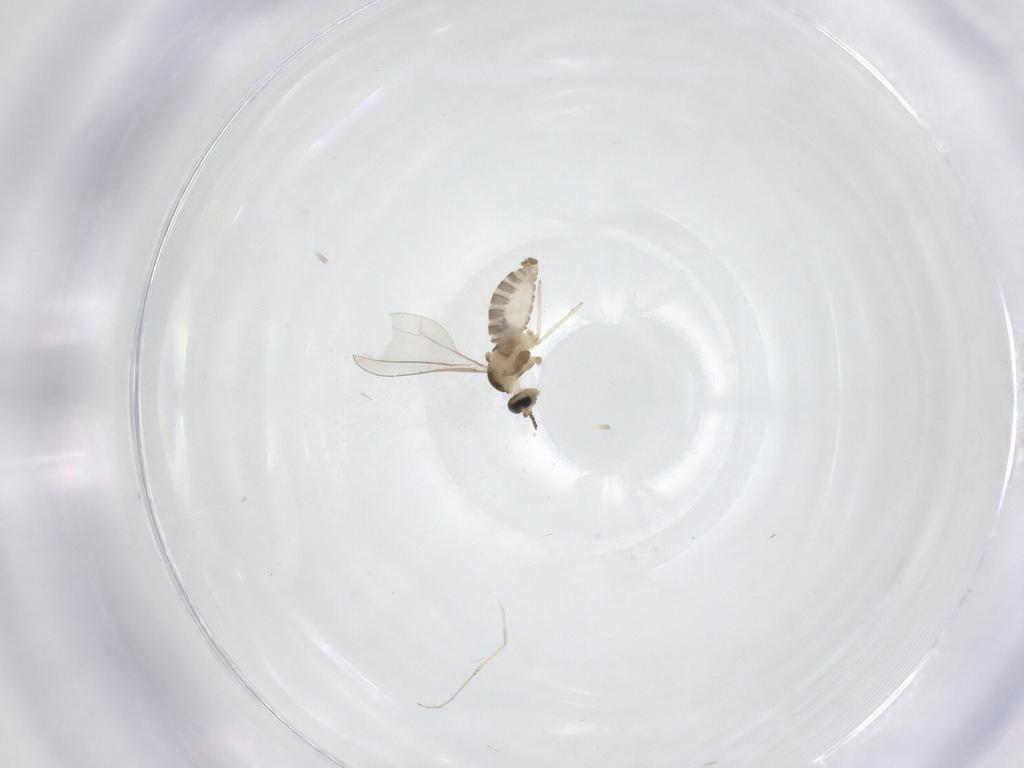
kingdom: Animalia
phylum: Arthropoda
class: Insecta
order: Diptera
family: Cecidomyiidae
